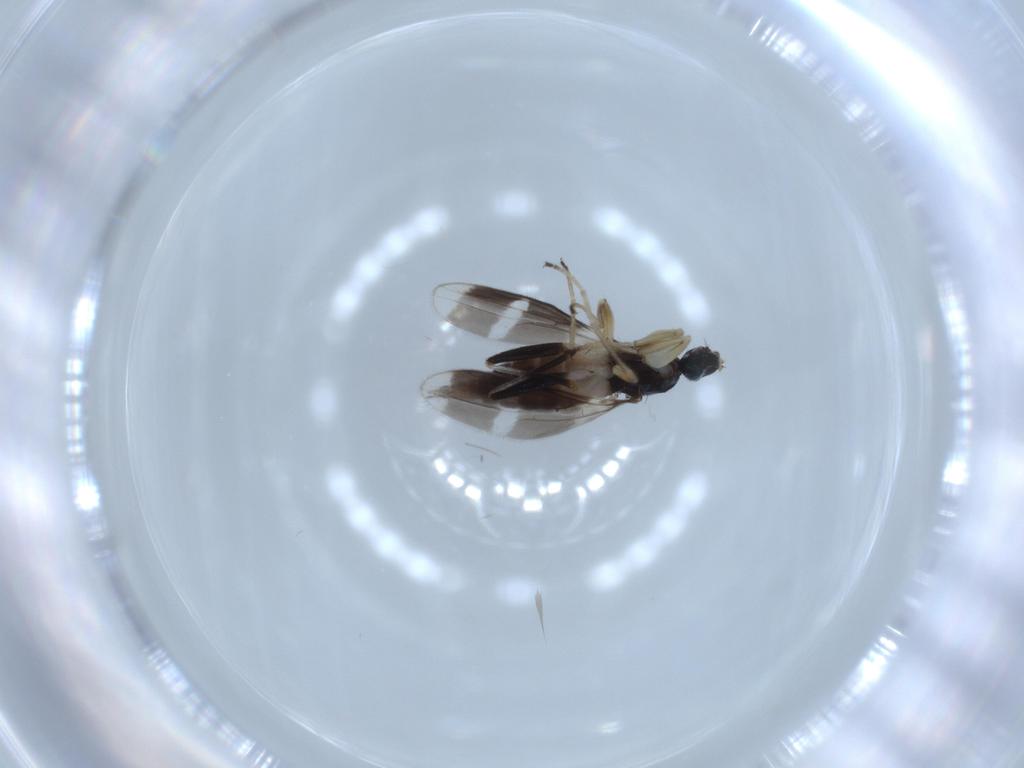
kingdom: Animalia
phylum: Arthropoda
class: Insecta
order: Diptera
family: Hybotidae
